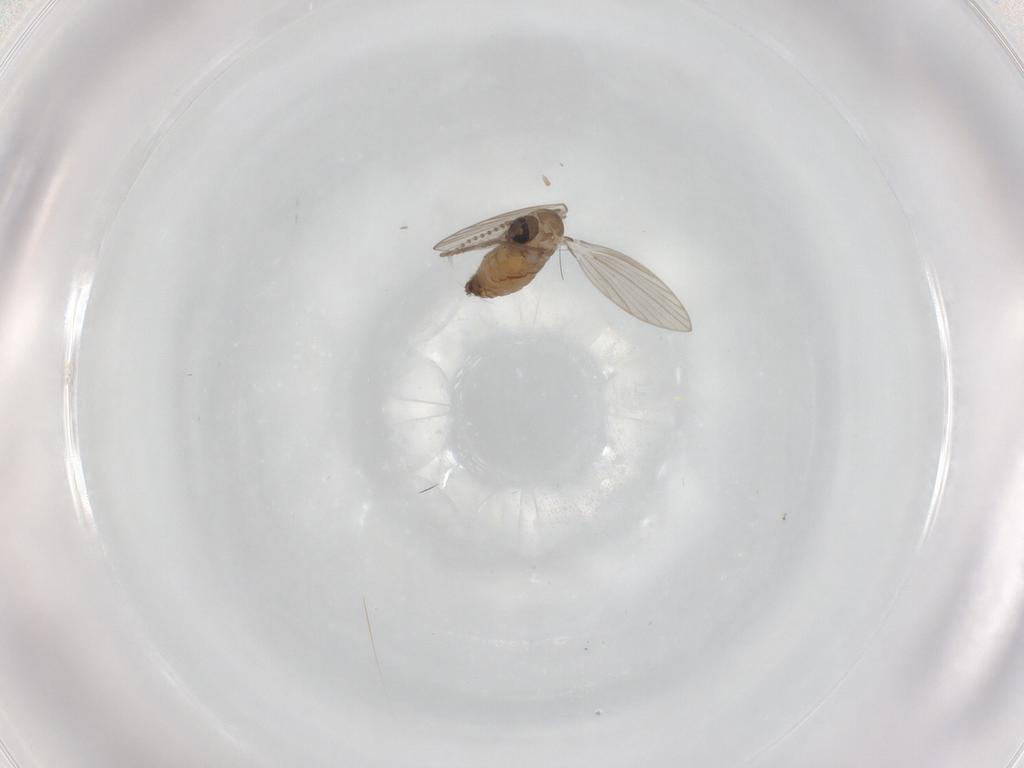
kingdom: Animalia
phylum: Arthropoda
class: Insecta
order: Diptera
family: Psychodidae
